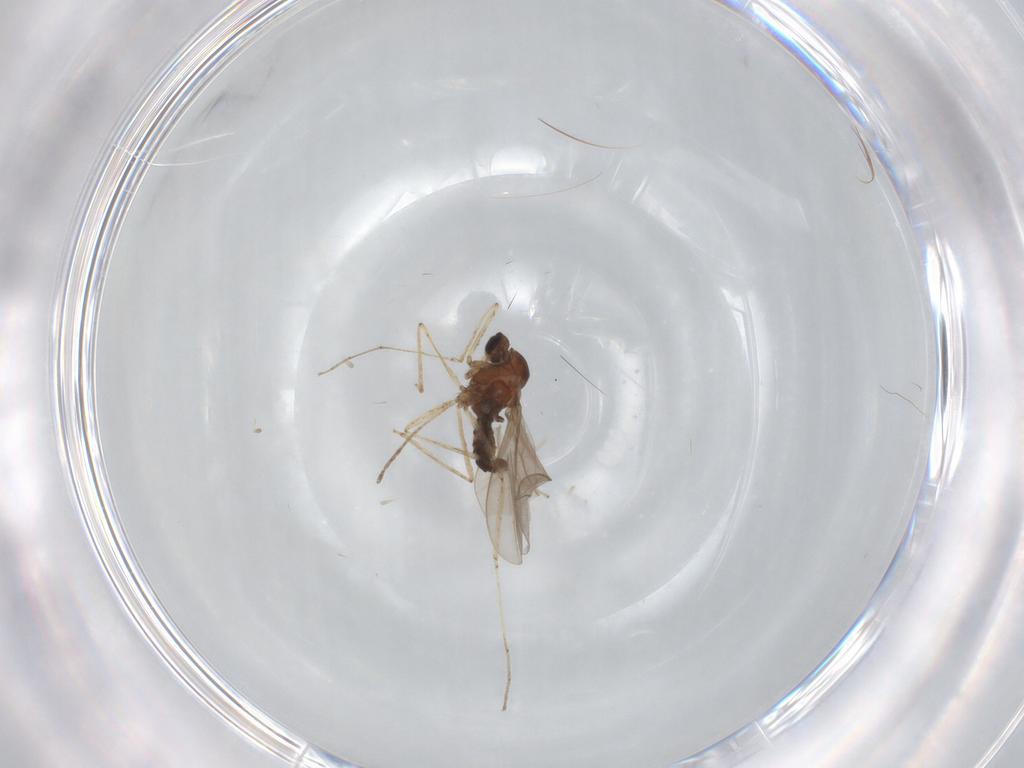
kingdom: Animalia
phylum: Arthropoda
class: Insecta
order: Diptera
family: Cecidomyiidae
